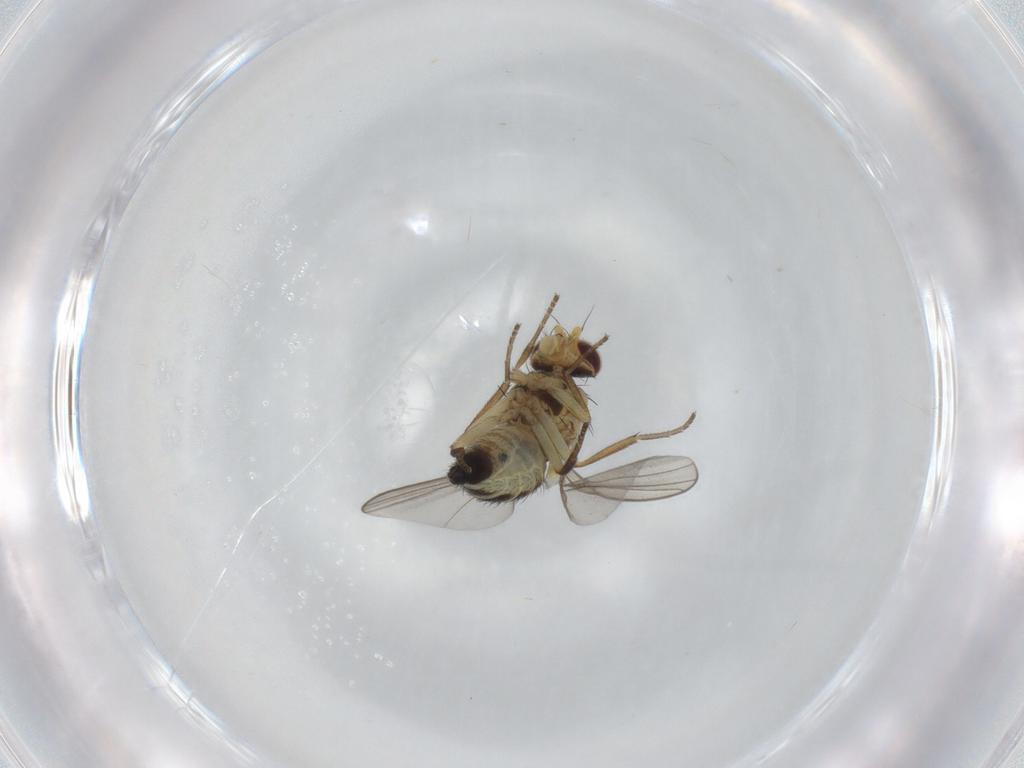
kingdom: Animalia
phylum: Arthropoda
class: Insecta
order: Diptera
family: Agromyzidae
